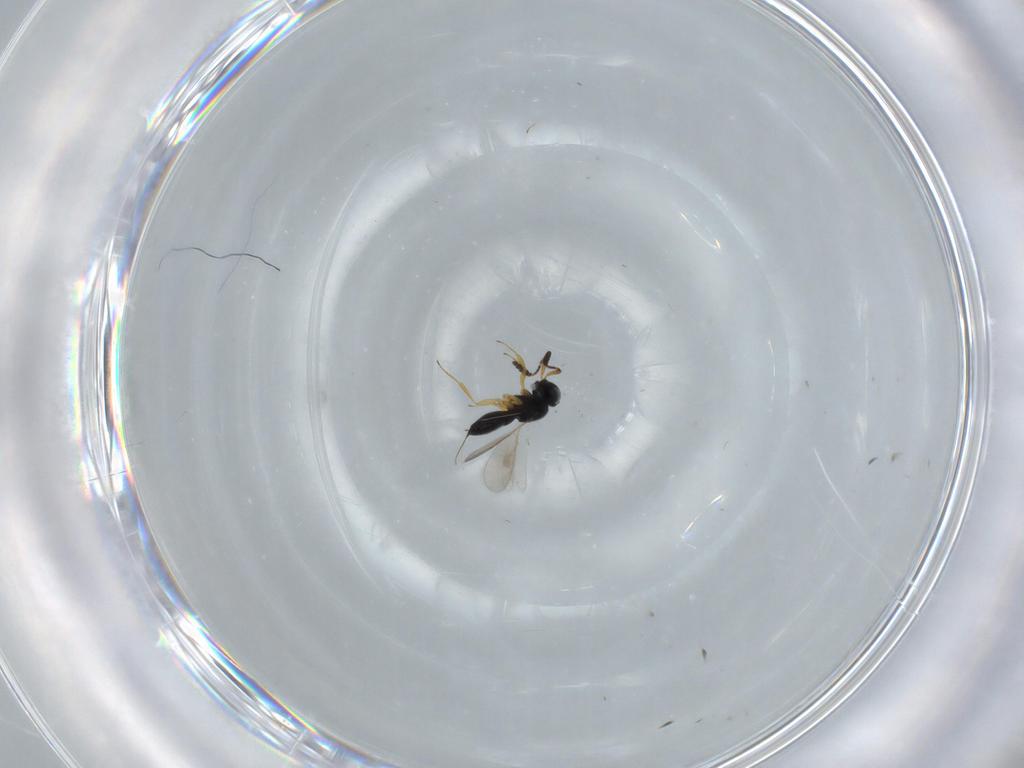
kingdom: Animalia
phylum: Arthropoda
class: Insecta
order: Hymenoptera
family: Scelionidae
